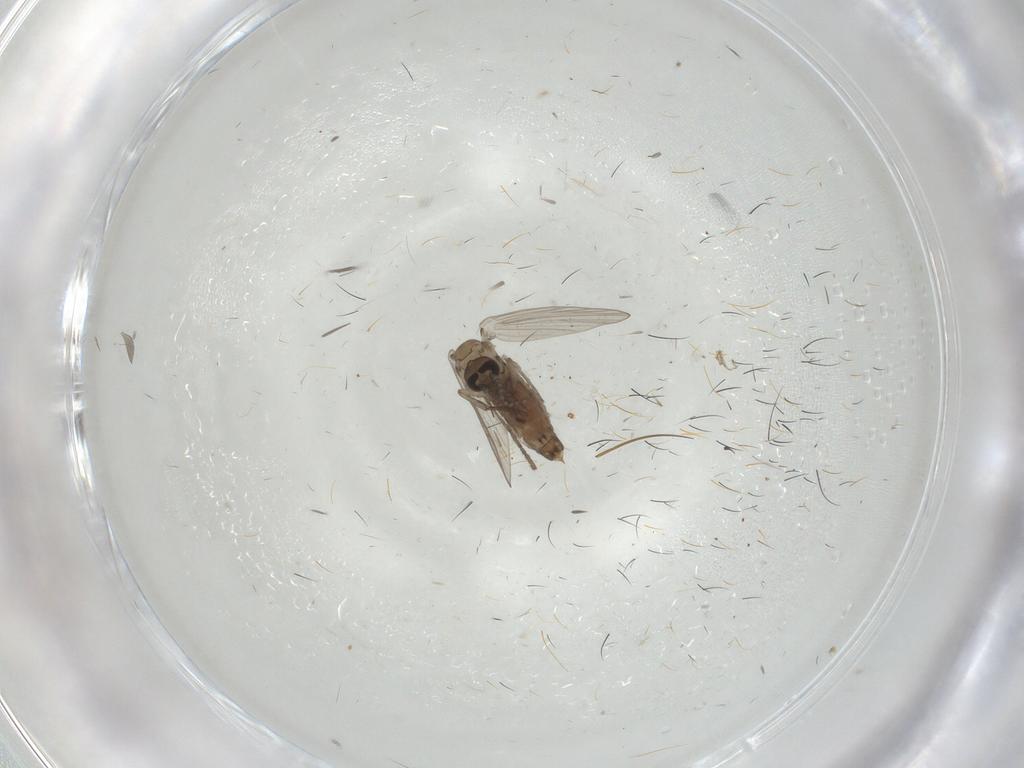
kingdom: Animalia
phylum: Arthropoda
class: Insecta
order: Diptera
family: Psychodidae
